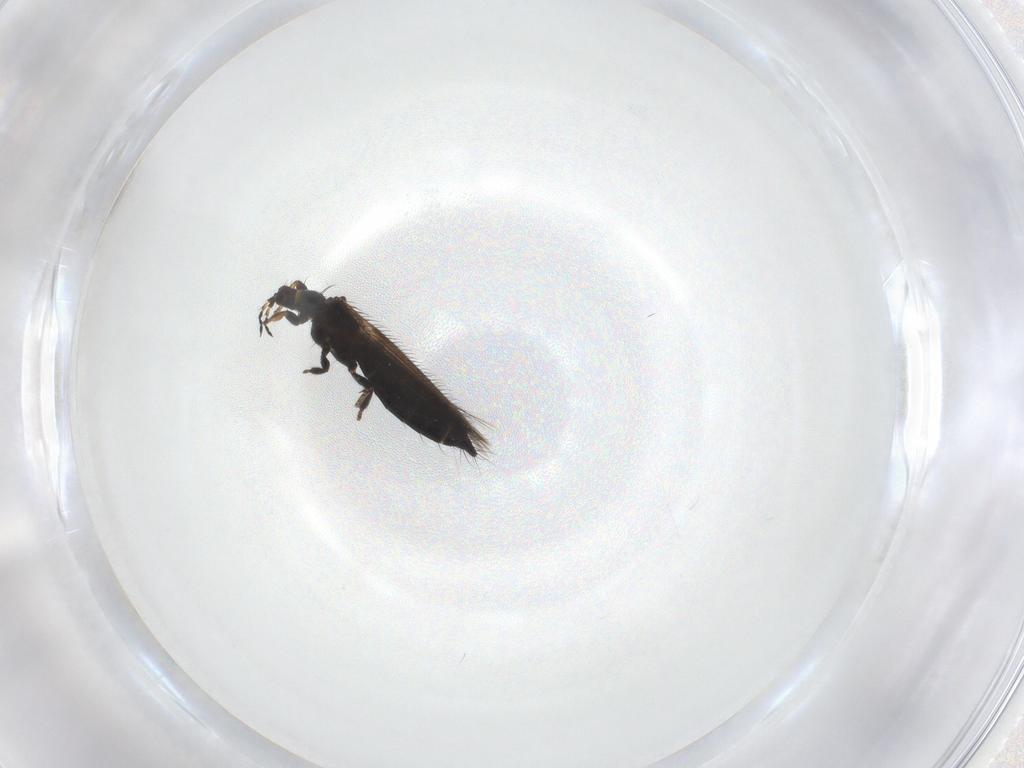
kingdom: Animalia
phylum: Arthropoda
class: Insecta
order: Thysanoptera
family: Thripidae
